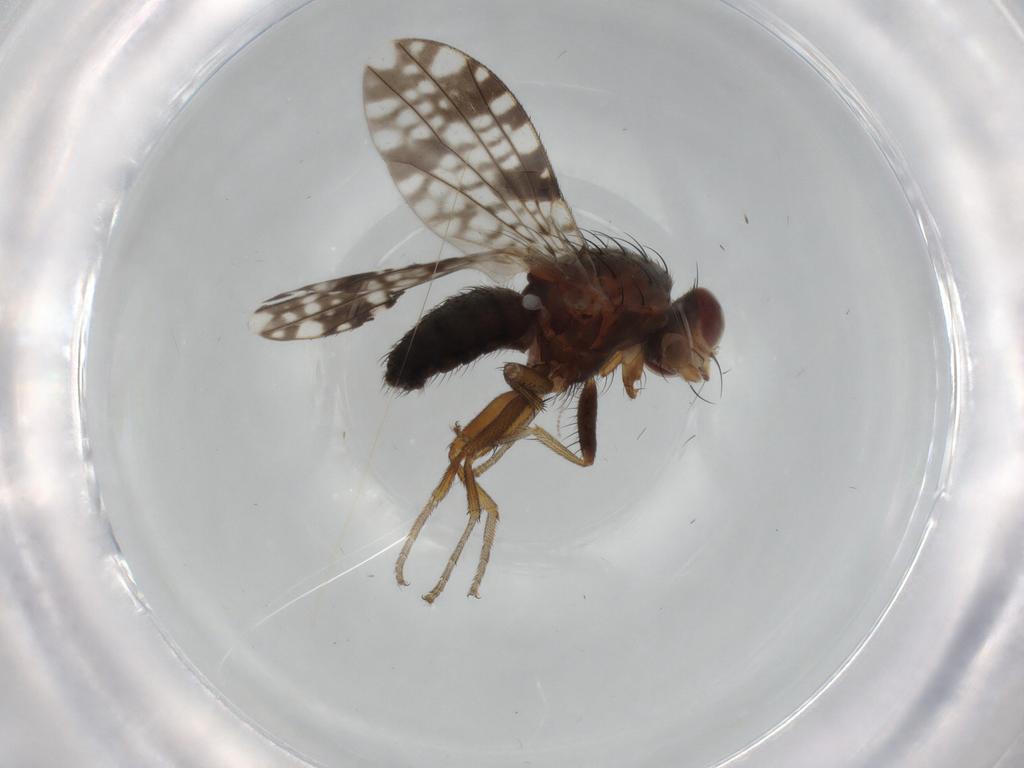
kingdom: Animalia
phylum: Arthropoda
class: Insecta
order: Diptera
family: Tephritidae
